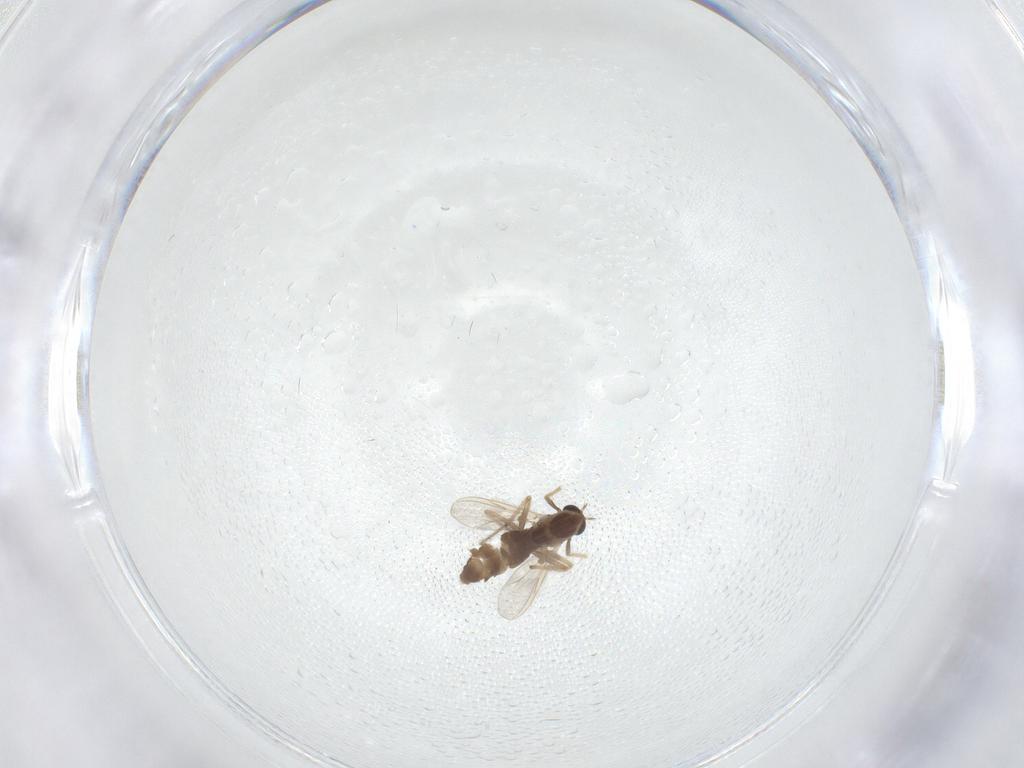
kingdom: Animalia
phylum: Arthropoda
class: Insecta
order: Diptera
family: Chironomidae
